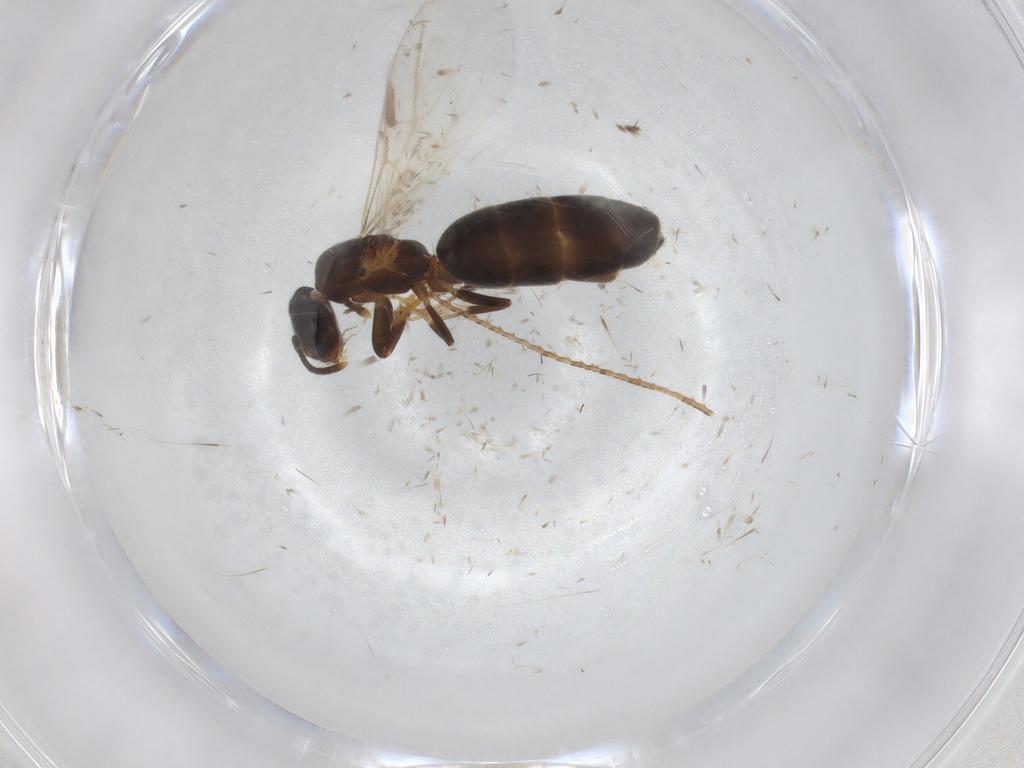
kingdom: Animalia
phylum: Arthropoda
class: Insecta
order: Hymenoptera
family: Formicidae
